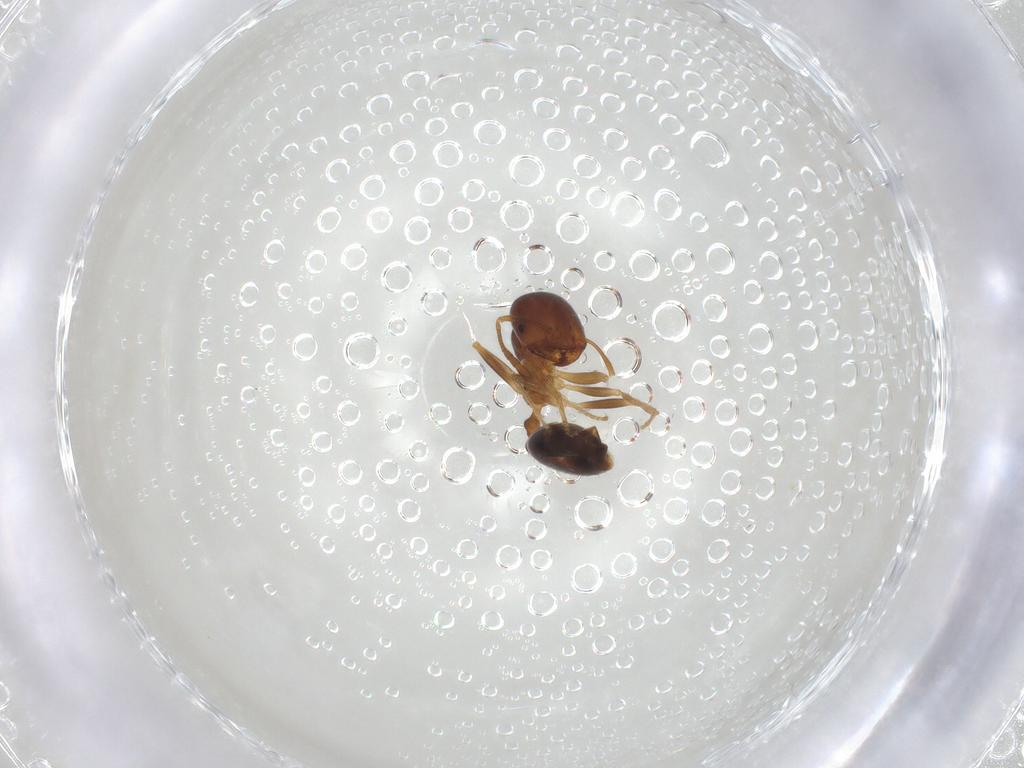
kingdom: Animalia
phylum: Arthropoda
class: Insecta
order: Hymenoptera
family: Formicidae
